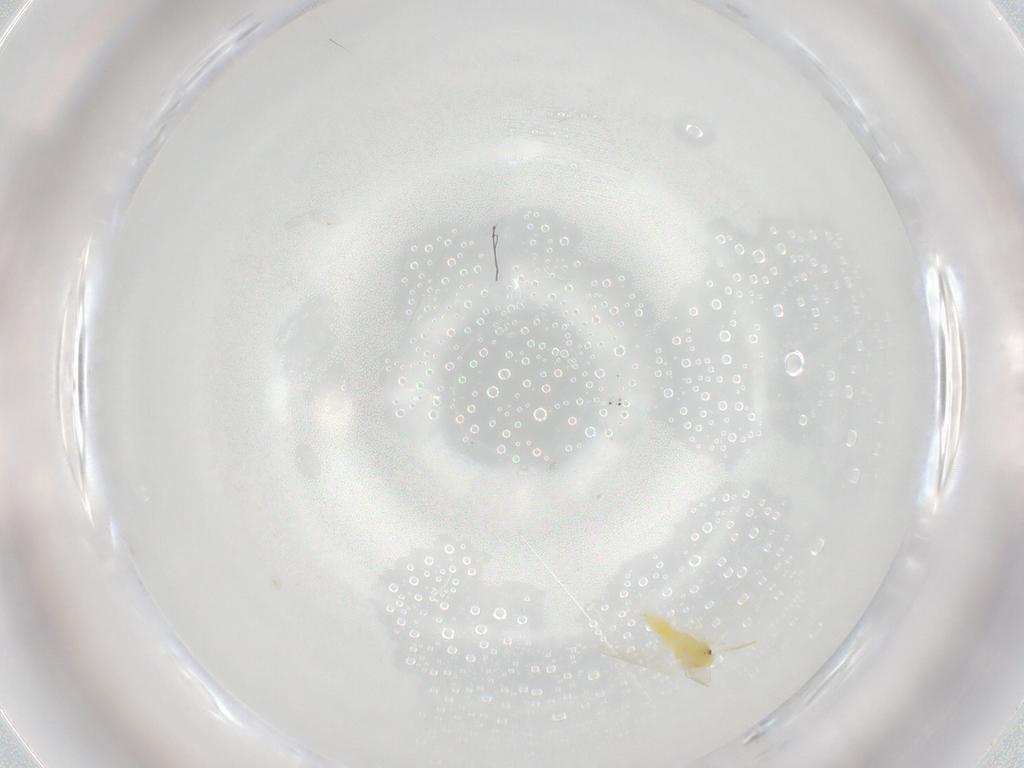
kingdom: Animalia
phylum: Arthropoda
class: Insecta
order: Hemiptera
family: Aleyrodidae
